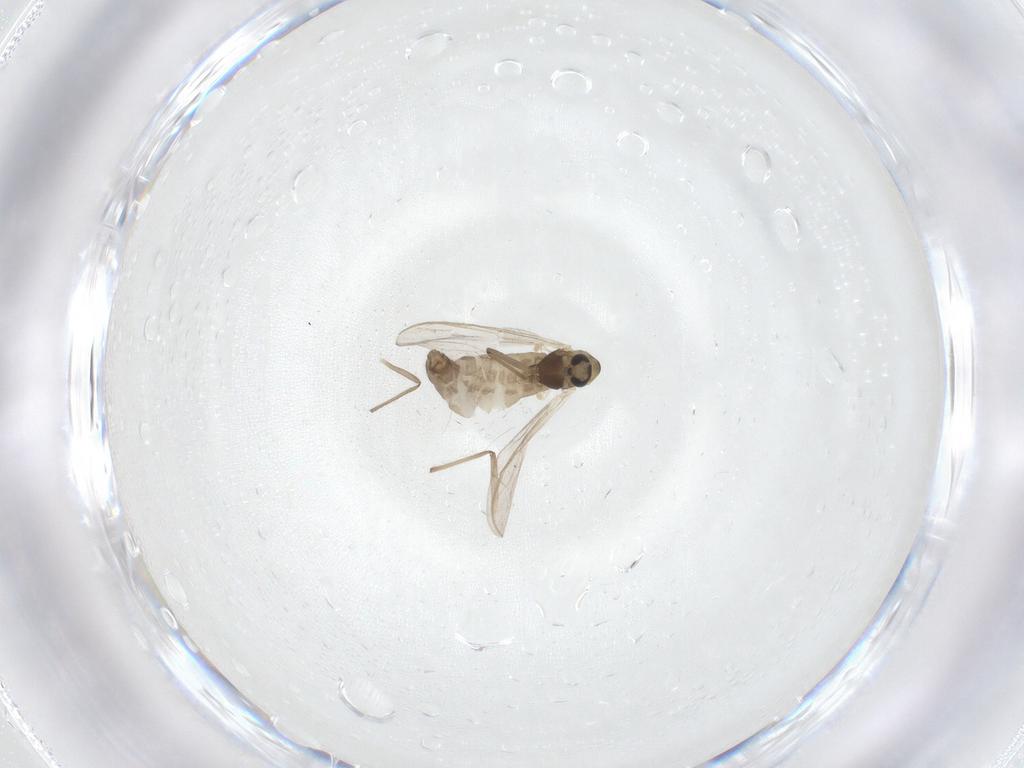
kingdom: Animalia
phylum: Arthropoda
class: Insecta
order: Diptera
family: Chironomidae
